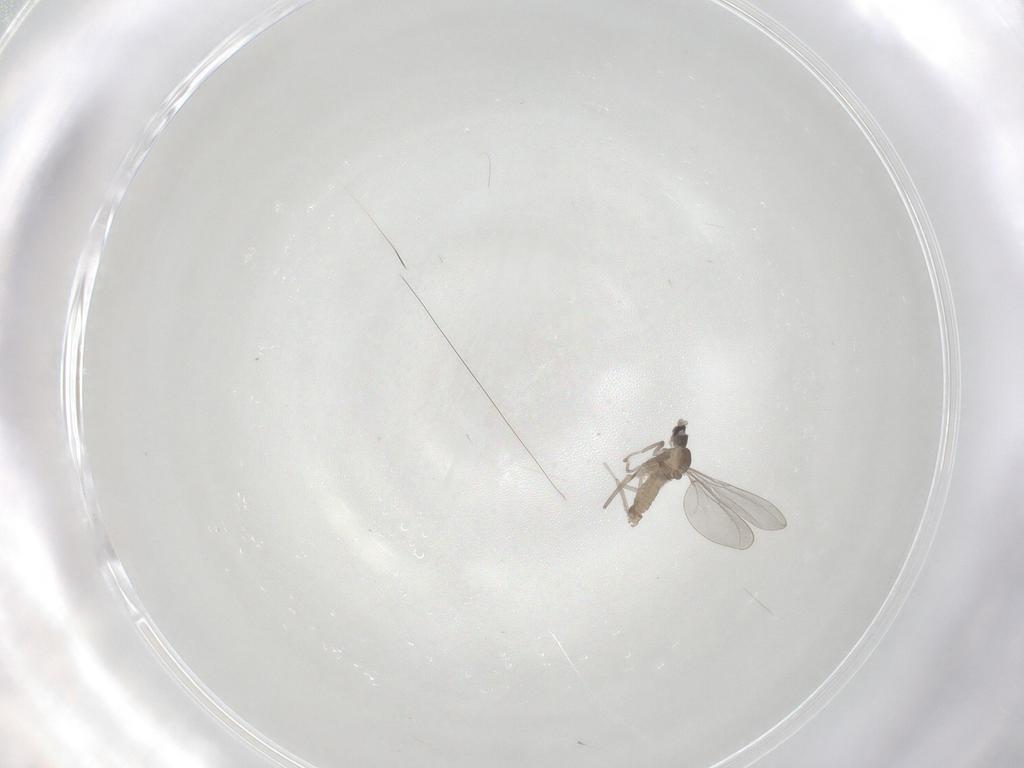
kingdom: Animalia
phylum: Arthropoda
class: Insecta
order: Diptera
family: Cecidomyiidae
